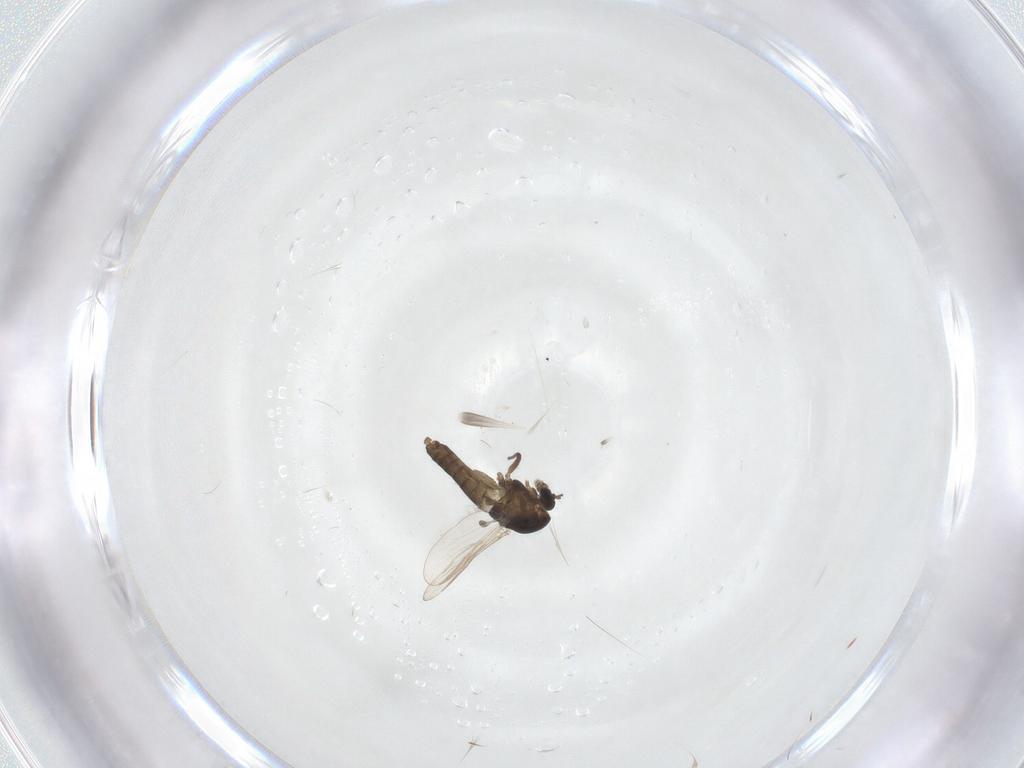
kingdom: Animalia
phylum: Arthropoda
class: Insecta
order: Diptera
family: Chironomidae
